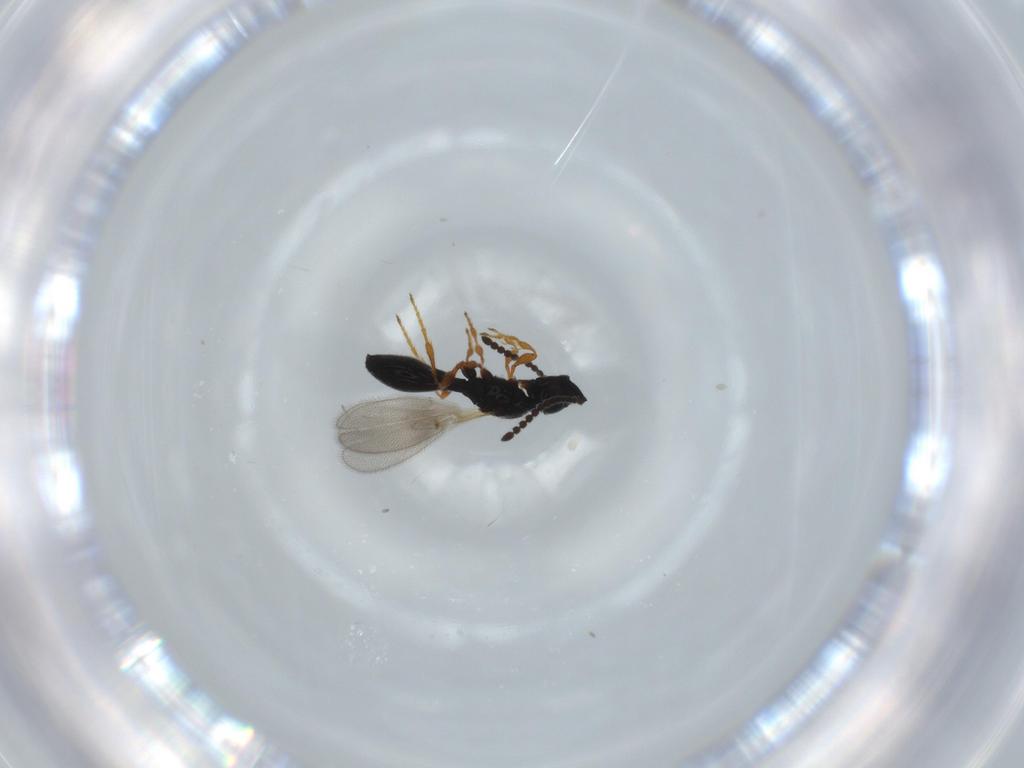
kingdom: Animalia
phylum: Arthropoda
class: Insecta
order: Hymenoptera
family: Diapriidae
